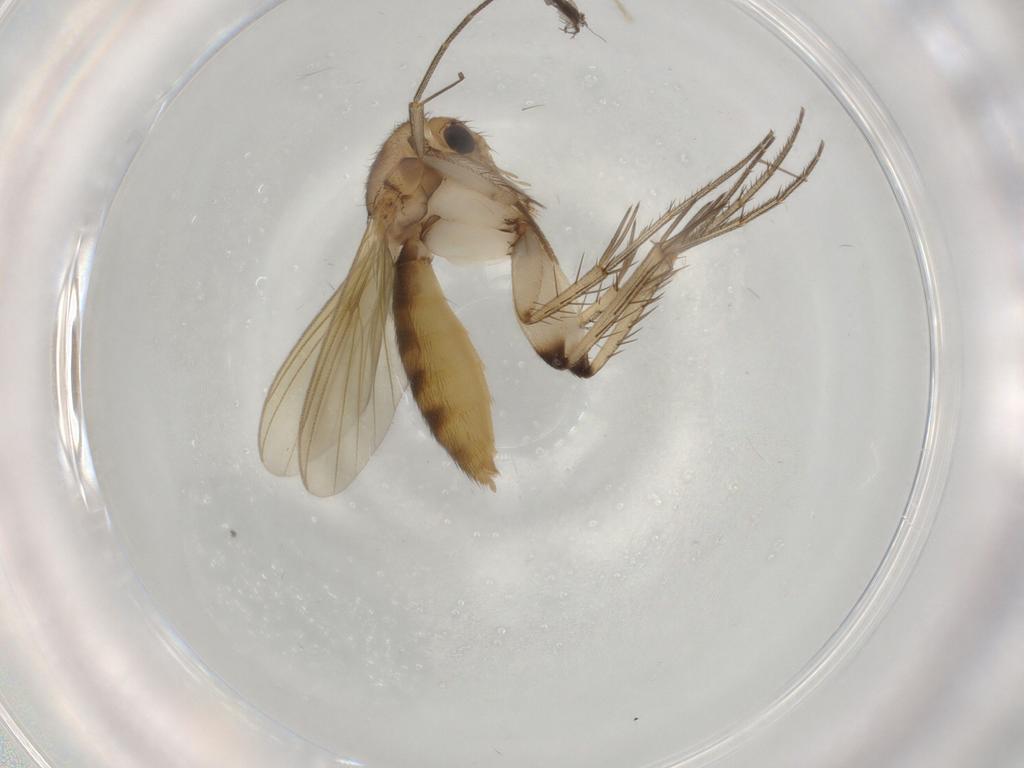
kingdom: Animalia
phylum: Arthropoda
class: Insecta
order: Diptera
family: Mycetophilidae
